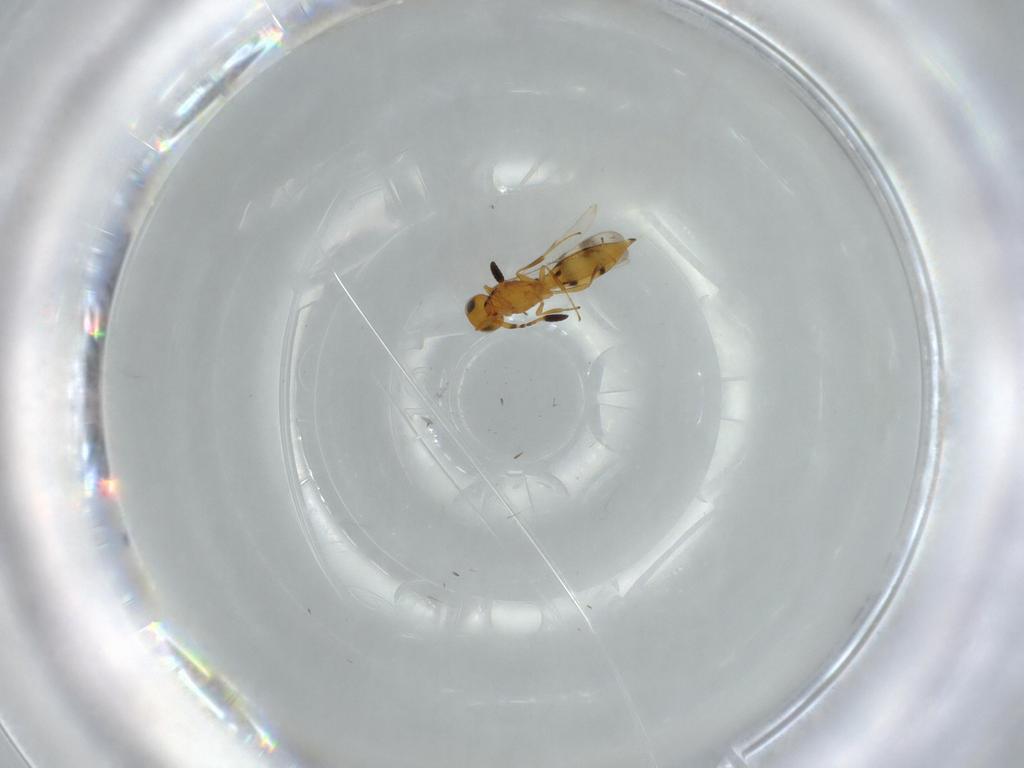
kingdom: Animalia
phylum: Arthropoda
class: Insecta
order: Hymenoptera
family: Scelionidae
